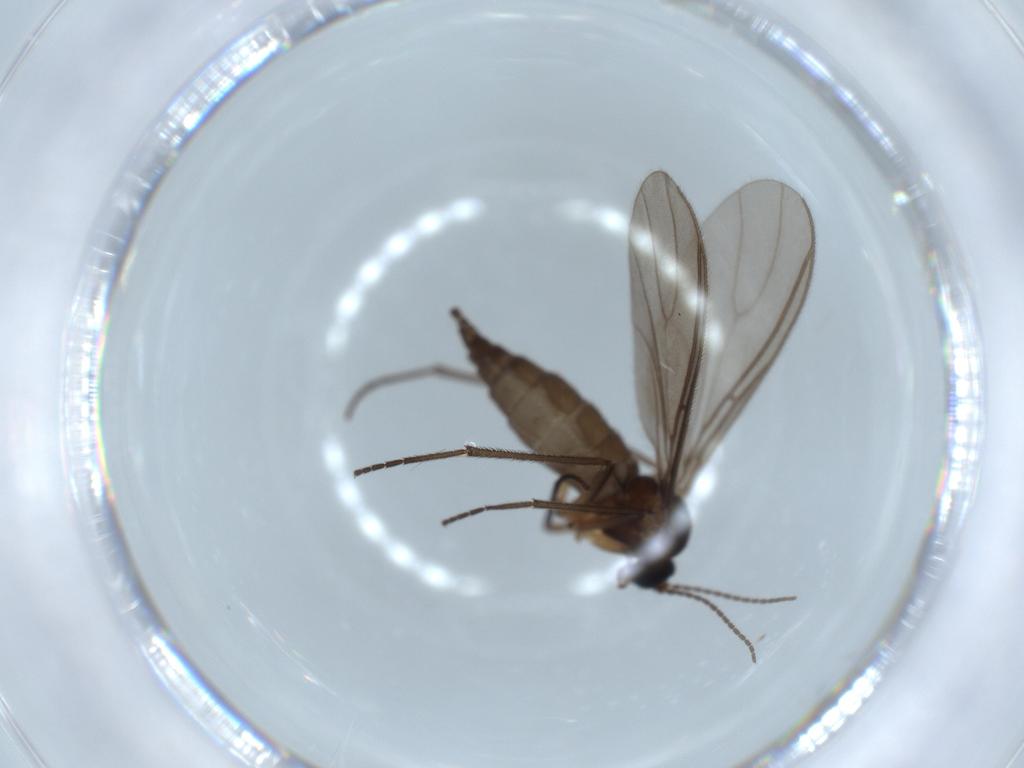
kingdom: Animalia
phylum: Arthropoda
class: Insecta
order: Diptera
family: Sciaridae
